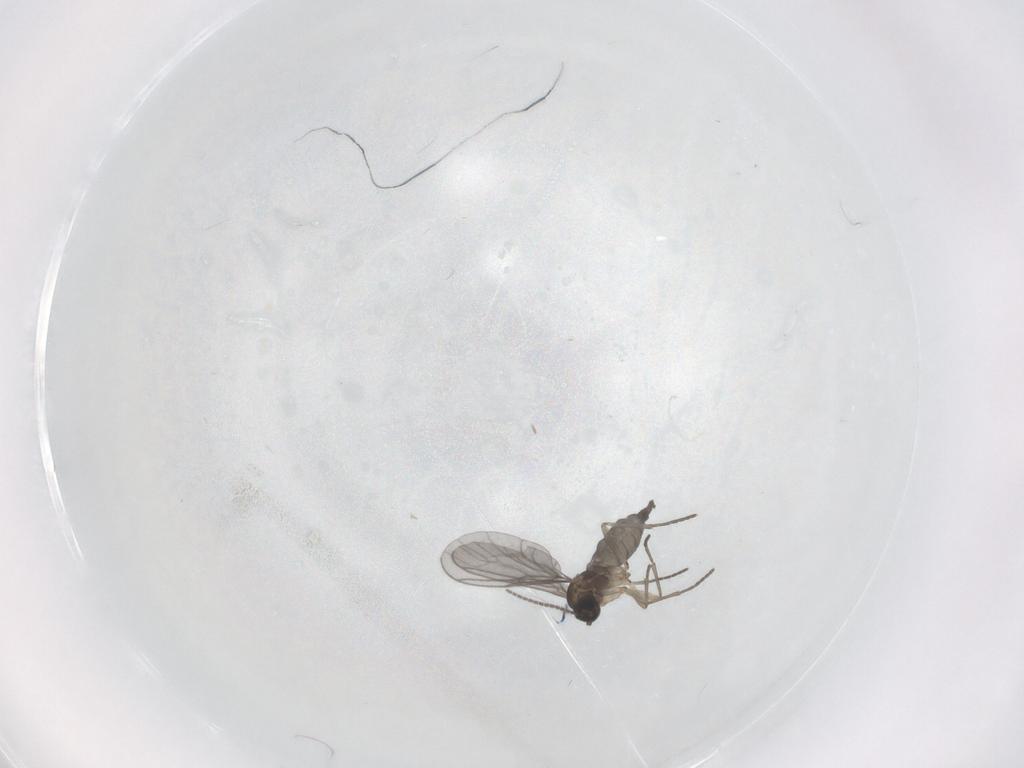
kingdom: Animalia
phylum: Arthropoda
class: Insecta
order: Diptera
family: Sciaridae
